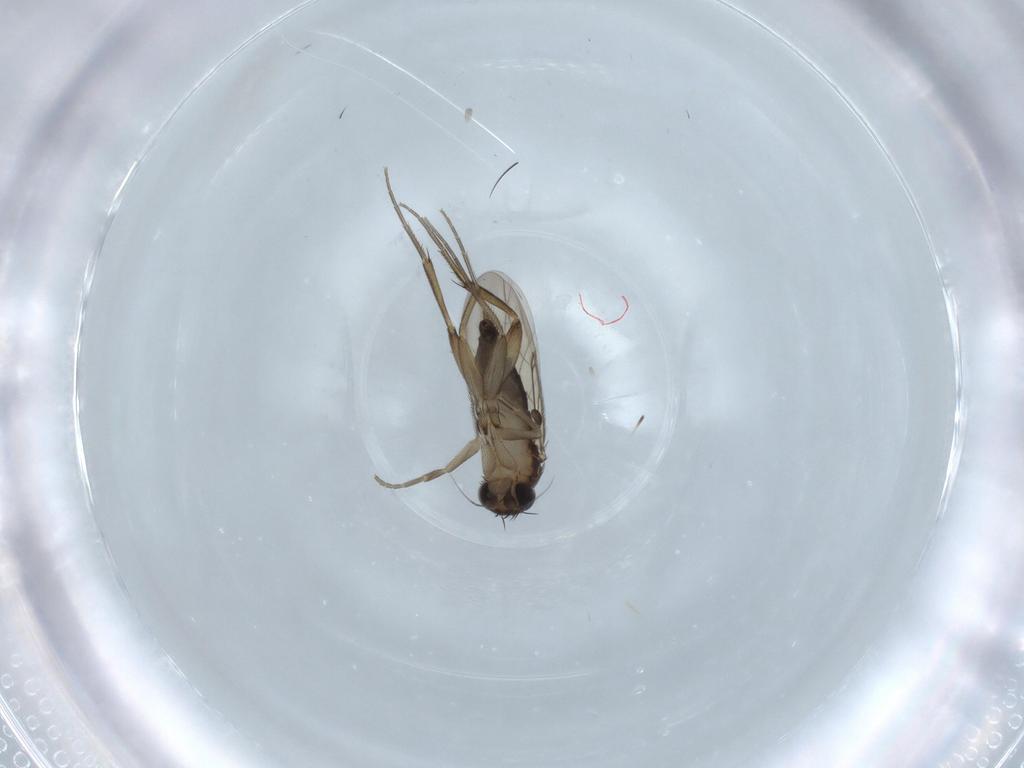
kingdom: Animalia
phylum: Arthropoda
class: Insecta
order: Diptera
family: Phoridae
